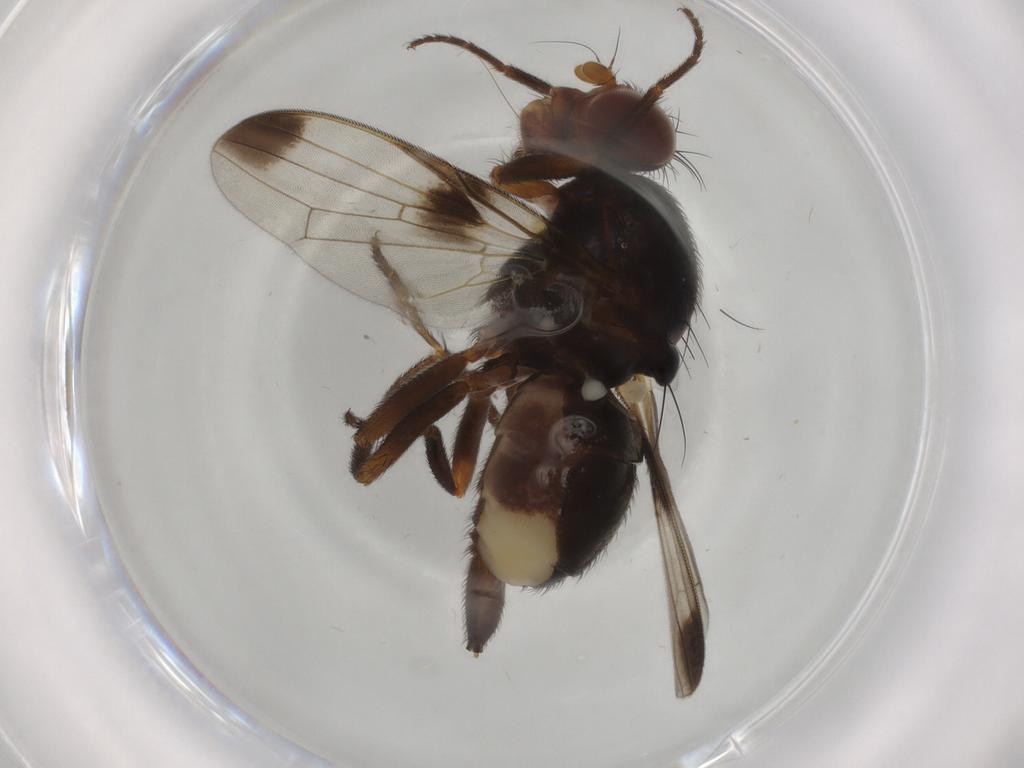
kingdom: Animalia
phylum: Arthropoda
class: Insecta
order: Diptera
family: Ulidiidae
